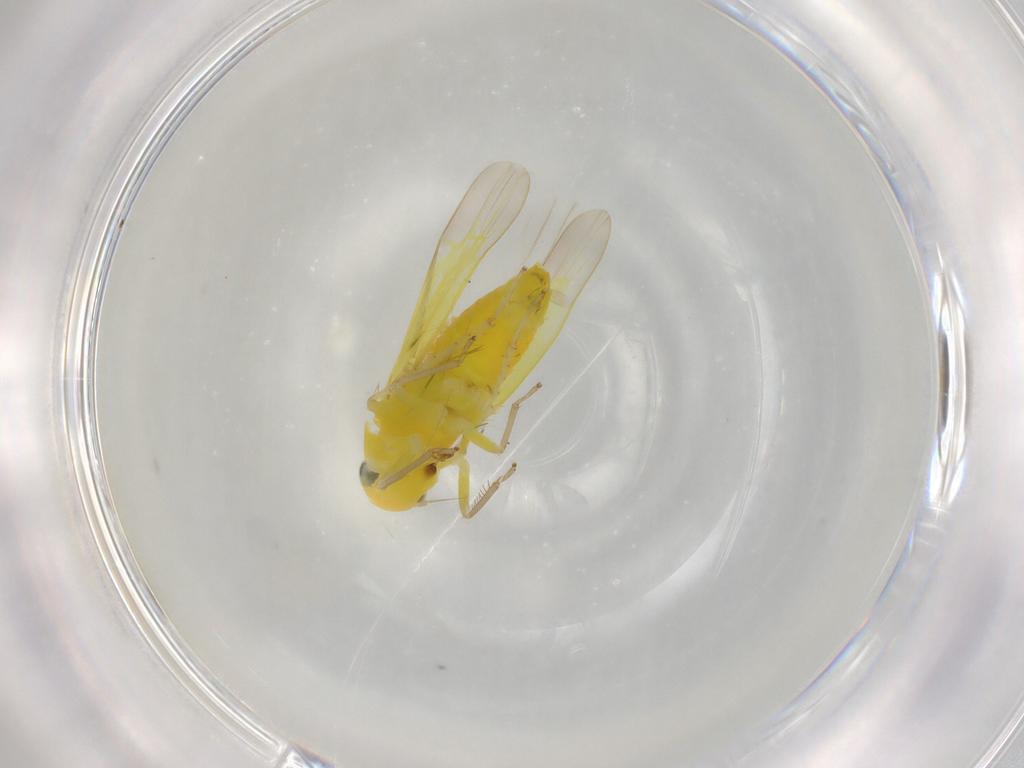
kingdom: Animalia
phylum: Arthropoda
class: Insecta
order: Hemiptera
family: Cicadellidae
